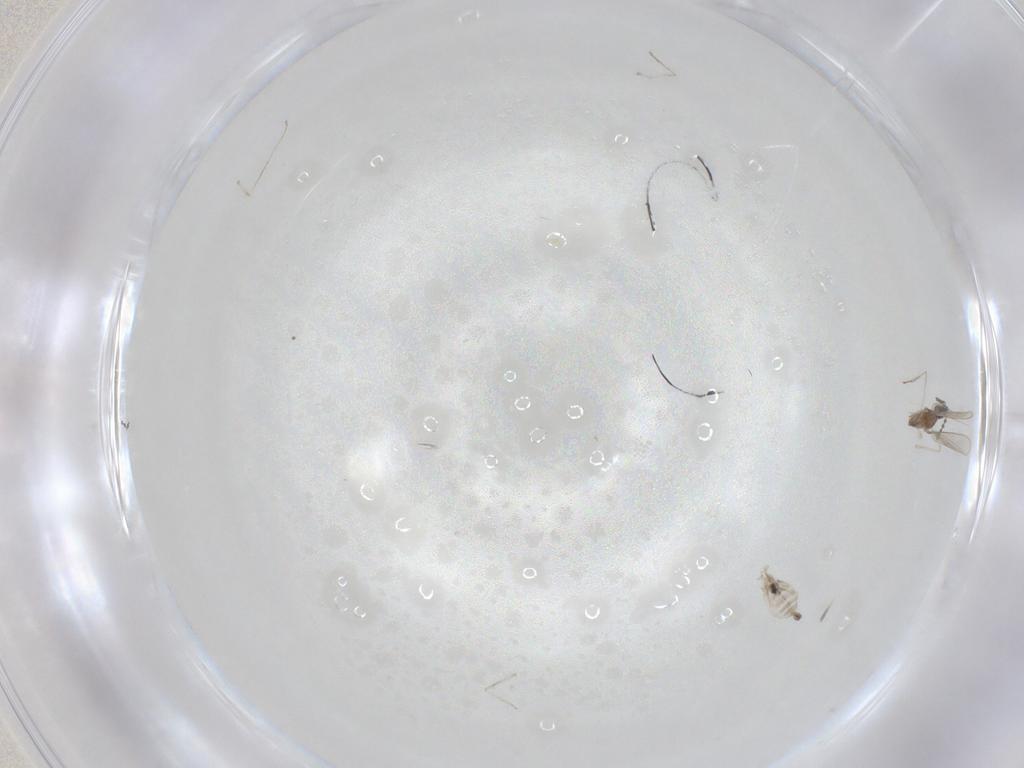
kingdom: Animalia
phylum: Arthropoda
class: Insecta
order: Diptera
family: Cecidomyiidae
